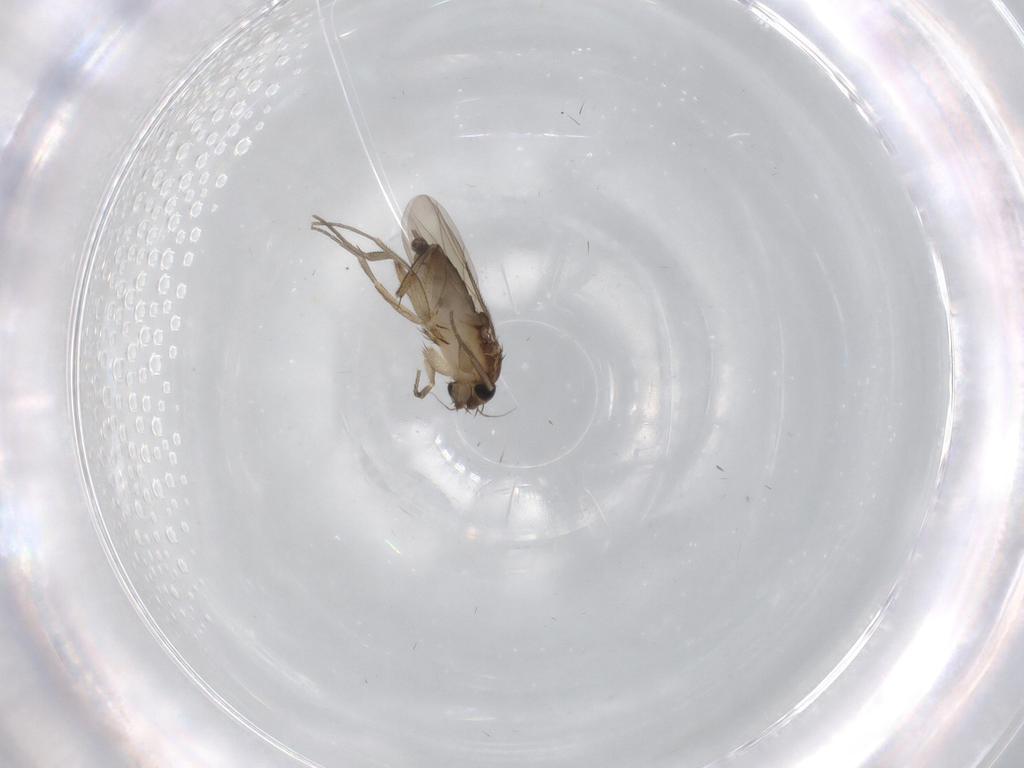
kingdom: Animalia
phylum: Arthropoda
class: Insecta
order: Diptera
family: Phoridae
